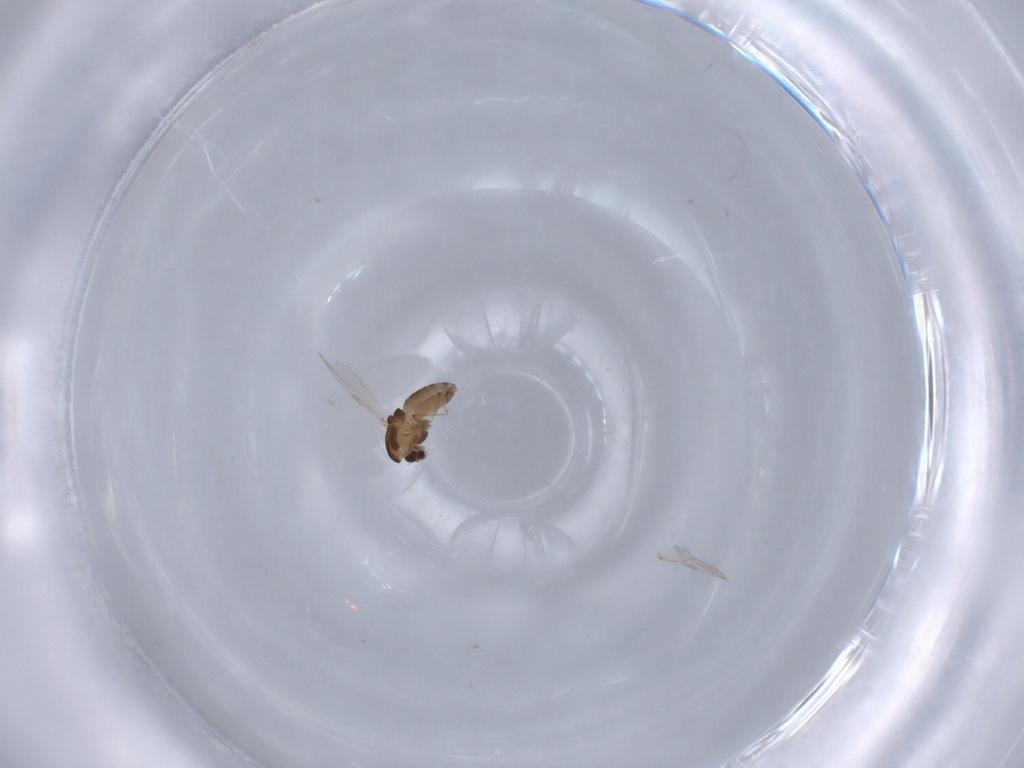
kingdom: Animalia
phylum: Arthropoda
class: Insecta
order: Diptera
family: Chironomidae
